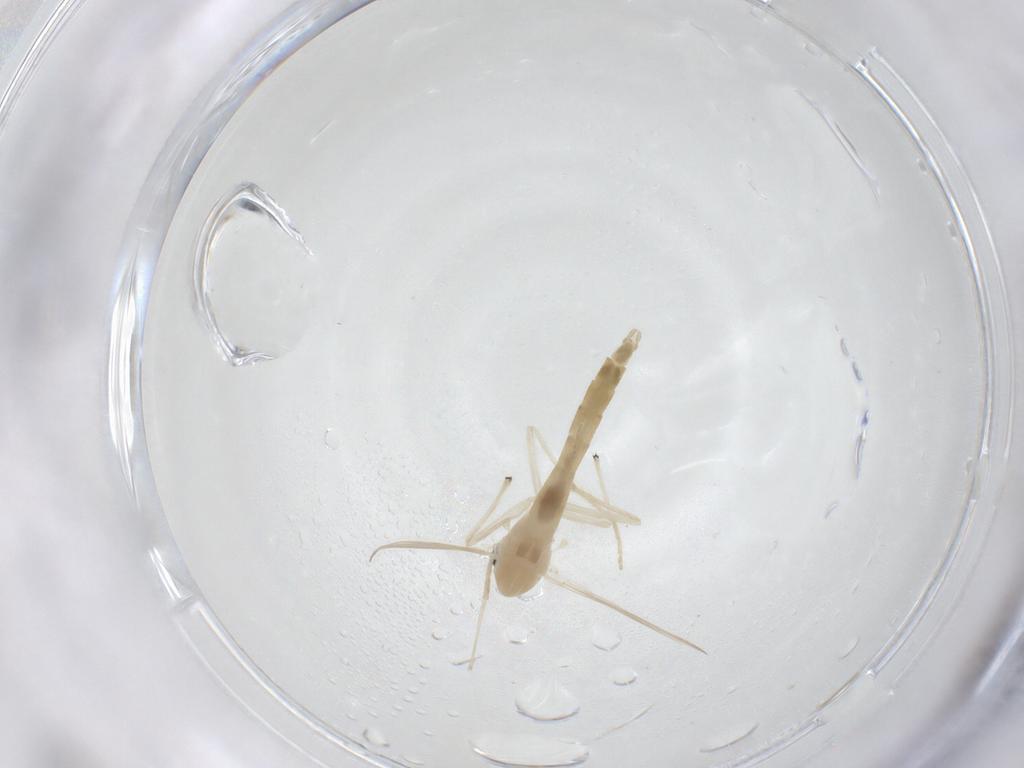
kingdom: Animalia
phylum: Arthropoda
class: Insecta
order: Diptera
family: Chironomidae
